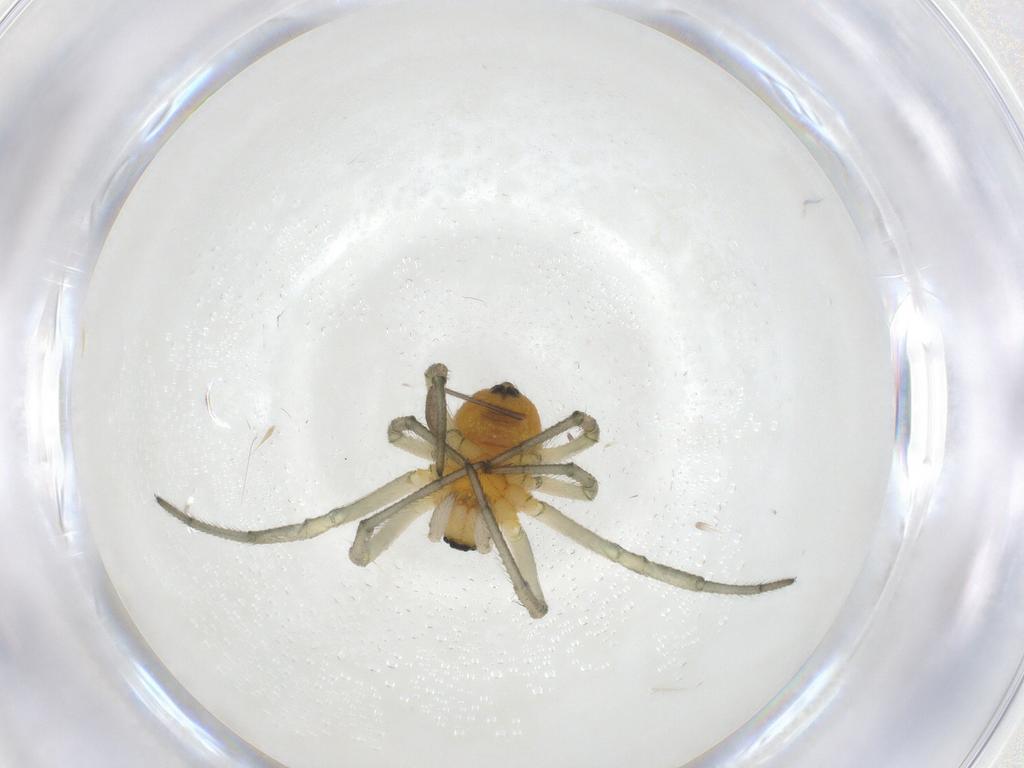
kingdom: Animalia
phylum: Arthropoda
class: Arachnida
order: Araneae
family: Araneidae
